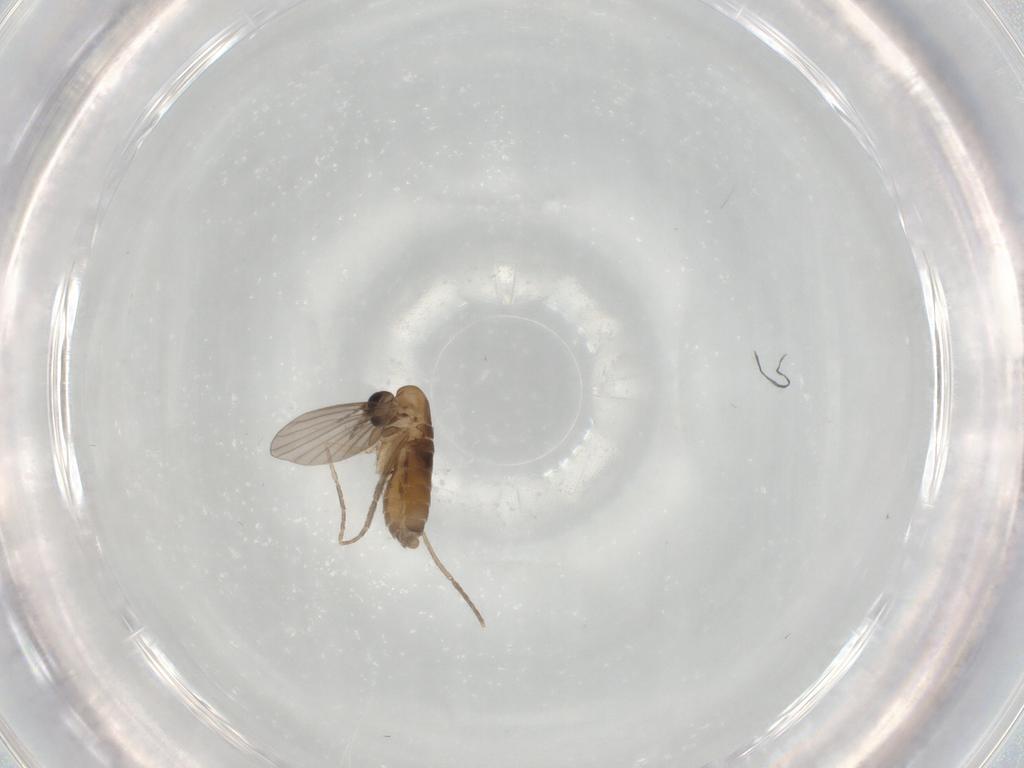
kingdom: Animalia
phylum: Arthropoda
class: Insecta
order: Diptera
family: Psychodidae
